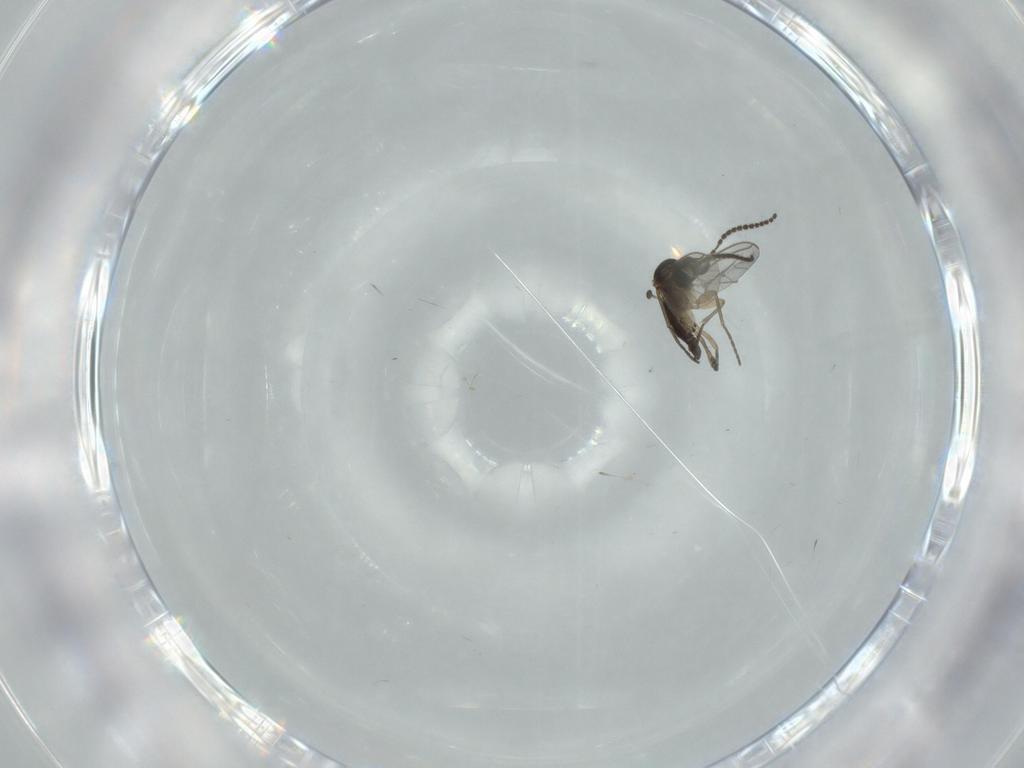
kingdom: Animalia
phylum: Arthropoda
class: Insecta
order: Diptera
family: Sciaridae
